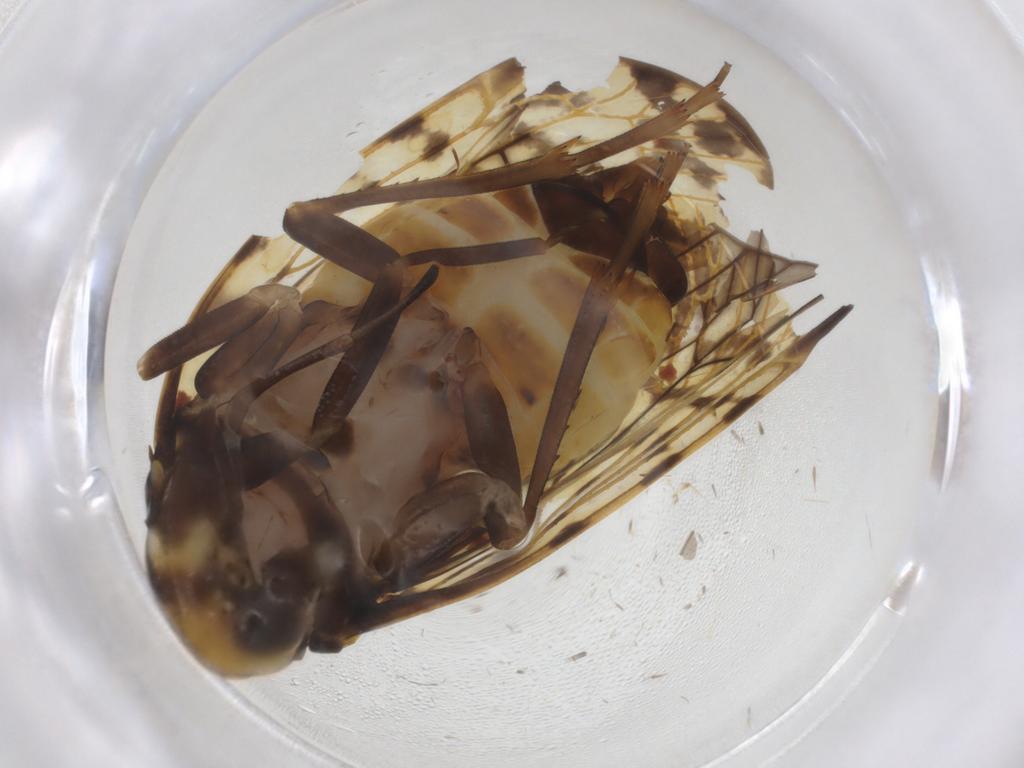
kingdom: Animalia
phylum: Arthropoda
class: Insecta
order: Hemiptera
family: Cixiidae
